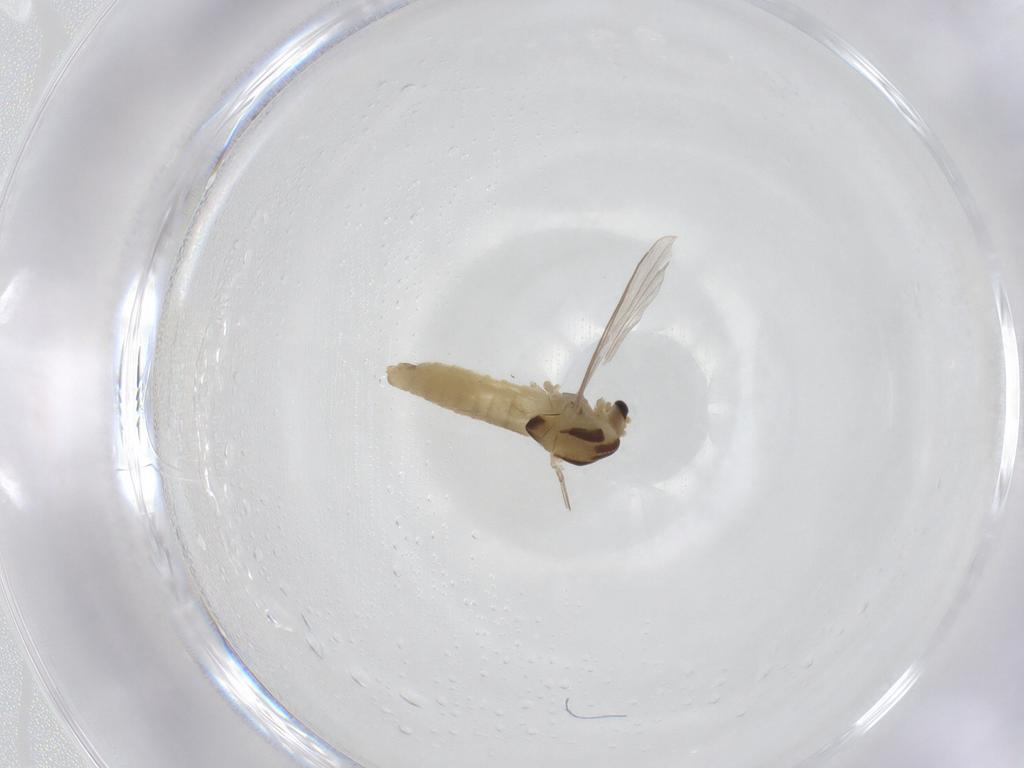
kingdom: Animalia
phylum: Arthropoda
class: Insecta
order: Diptera
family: Chironomidae
